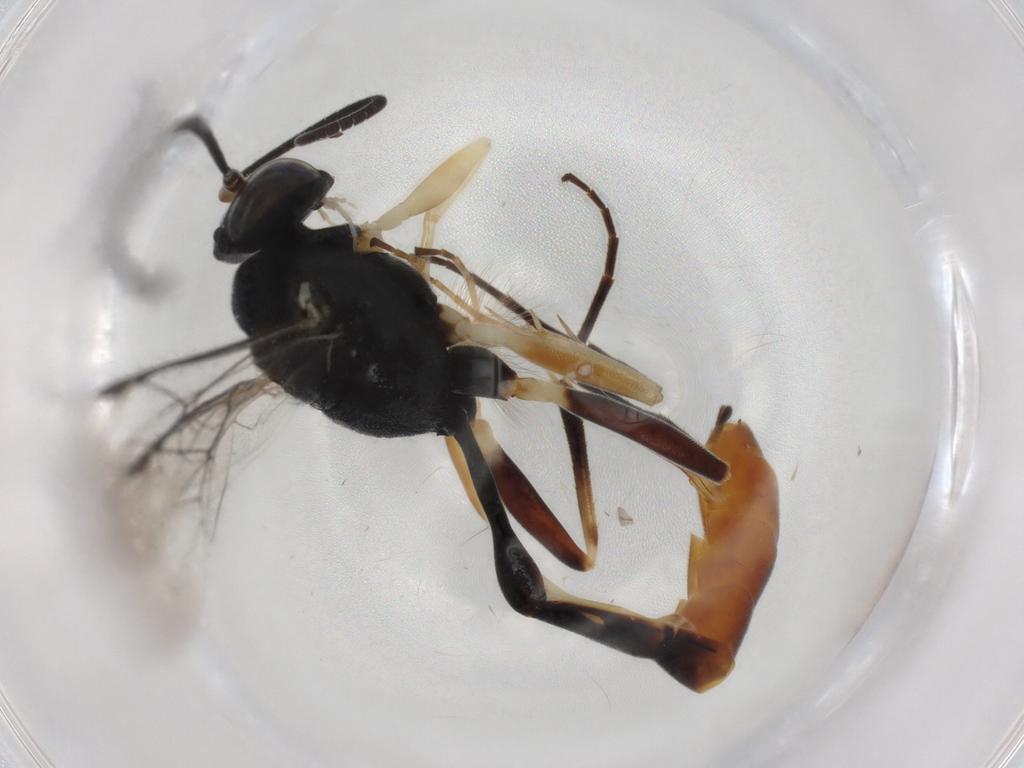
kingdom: Animalia
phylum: Arthropoda
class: Insecta
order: Hymenoptera
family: Ichneumonidae
